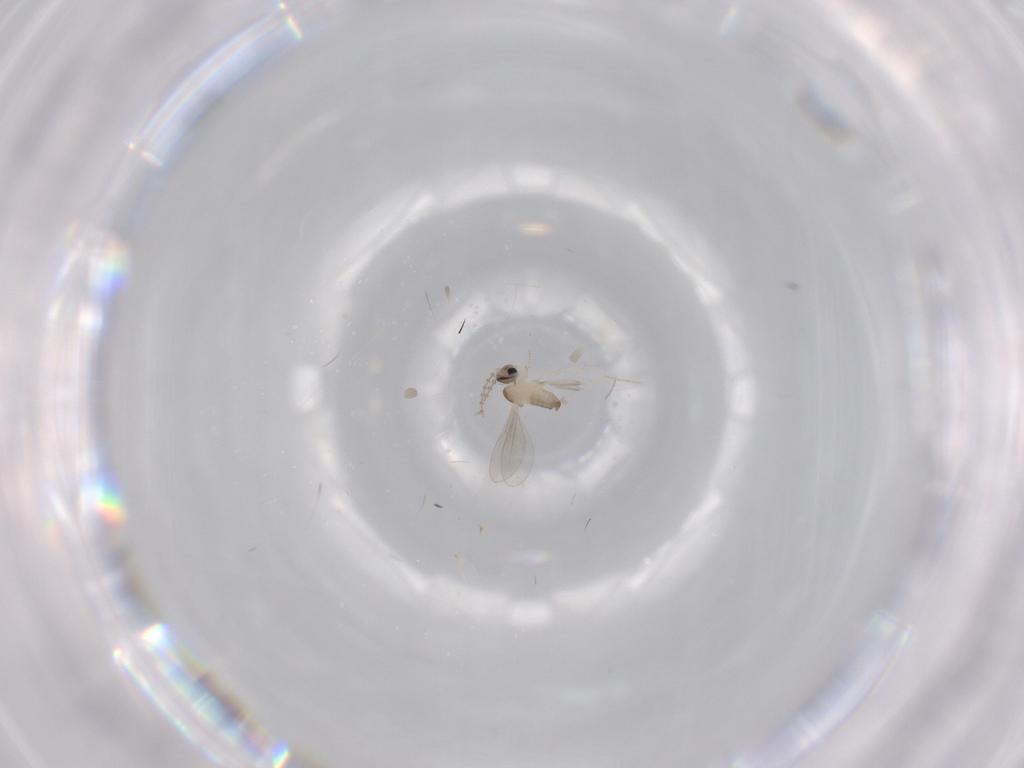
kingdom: Animalia
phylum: Arthropoda
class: Insecta
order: Diptera
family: Cecidomyiidae
